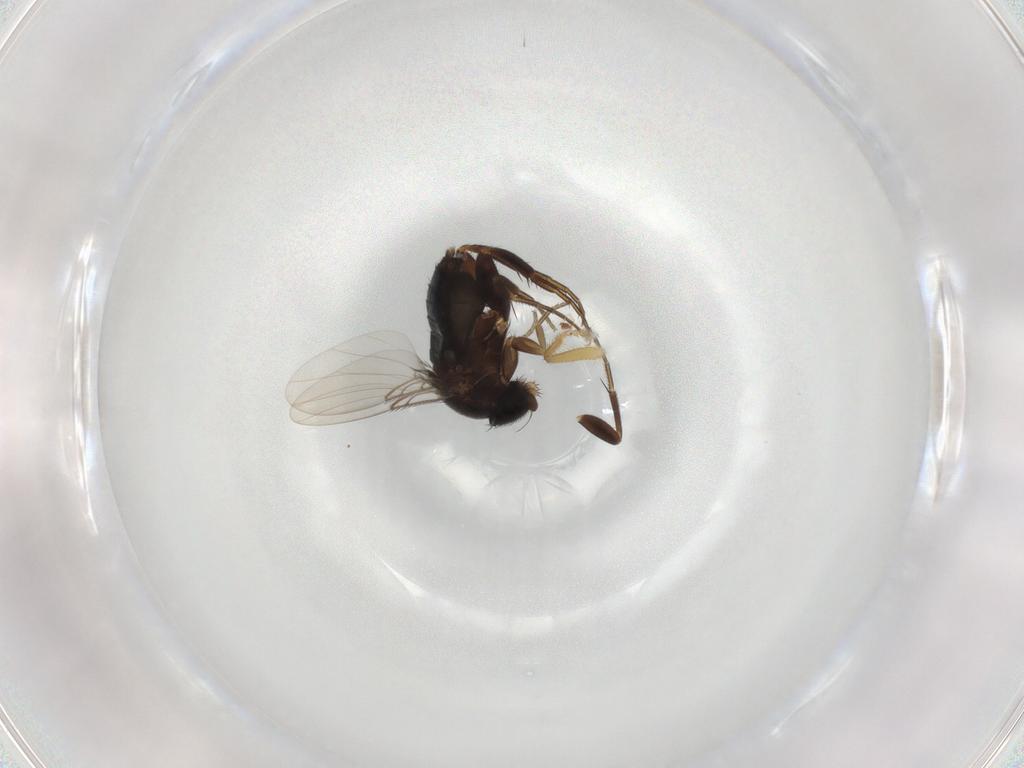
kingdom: Animalia
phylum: Arthropoda
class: Insecta
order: Diptera
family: Phoridae
